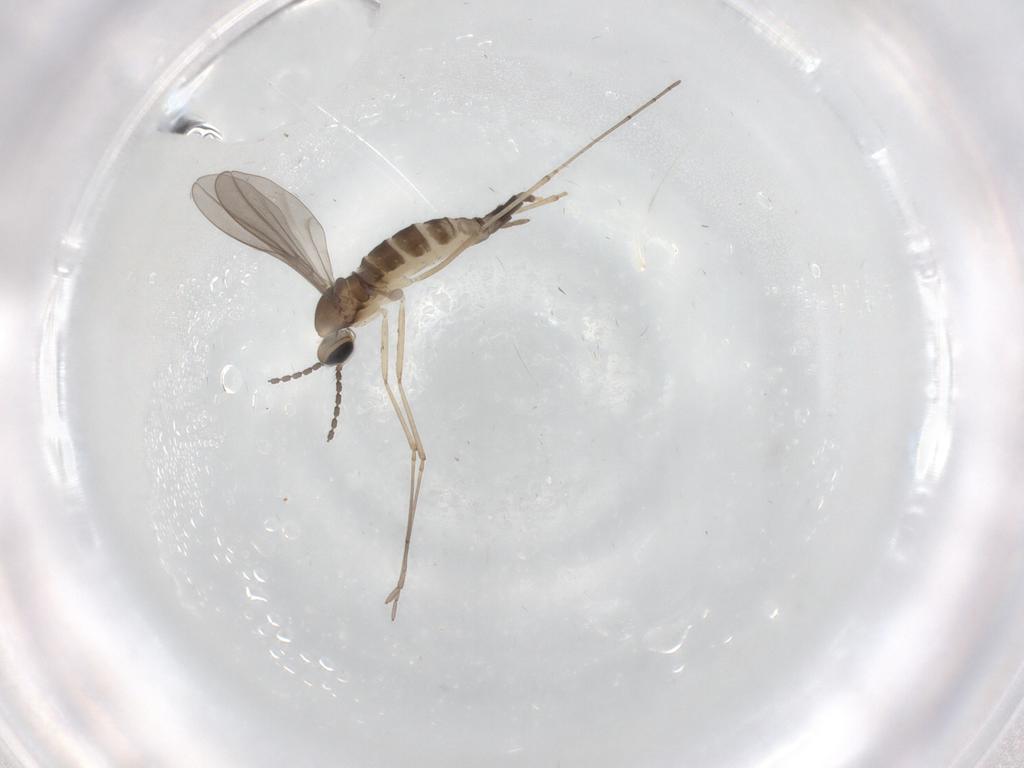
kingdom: Animalia
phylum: Arthropoda
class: Insecta
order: Diptera
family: Cecidomyiidae
